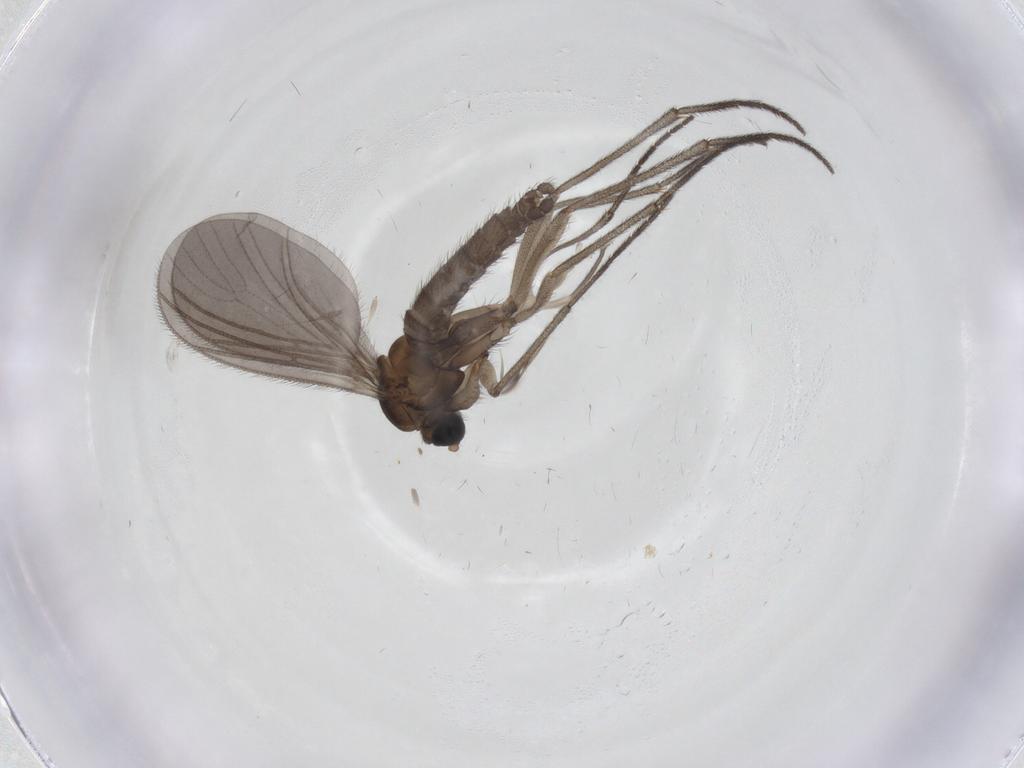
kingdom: Animalia
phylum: Arthropoda
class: Insecta
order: Diptera
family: Sciaridae
